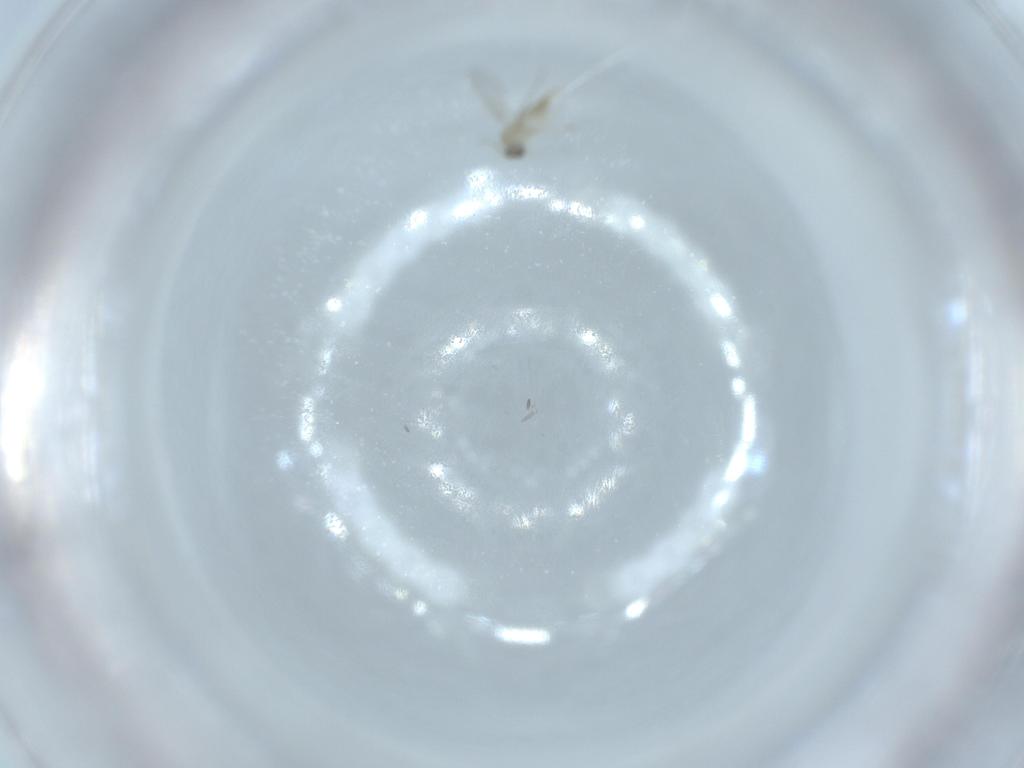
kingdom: Animalia
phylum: Arthropoda
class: Insecta
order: Diptera
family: Cecidomyiidae
